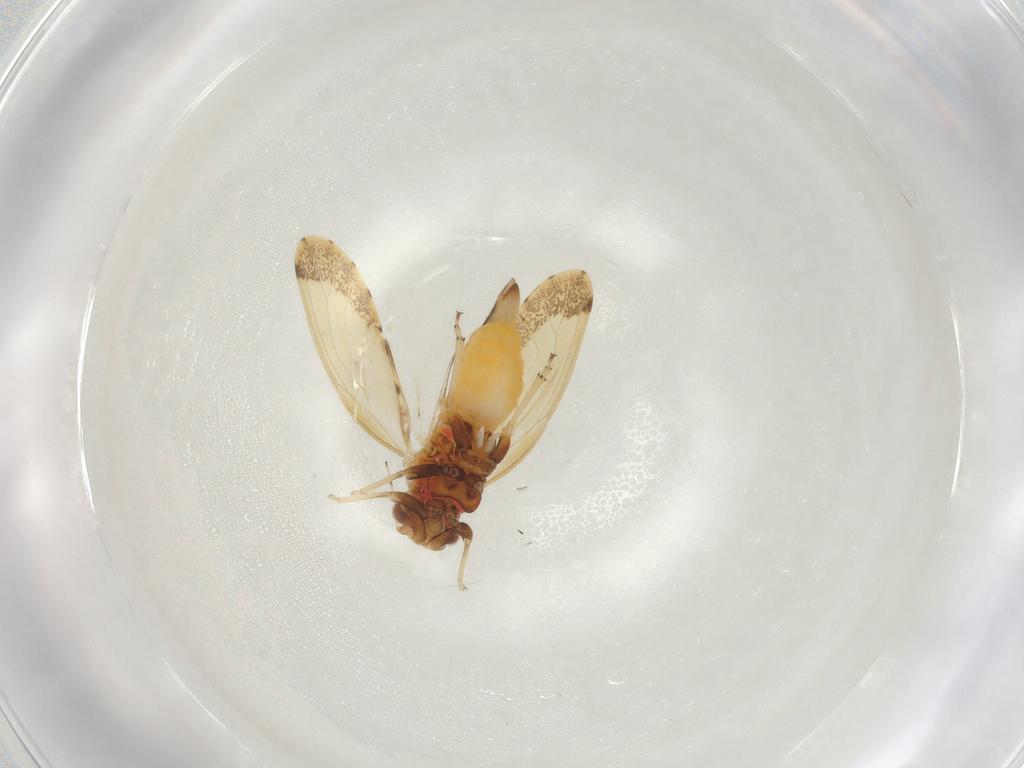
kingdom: Animalia
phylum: Arthropoda
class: Insecta
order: Hemiptera
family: Psyllidae
